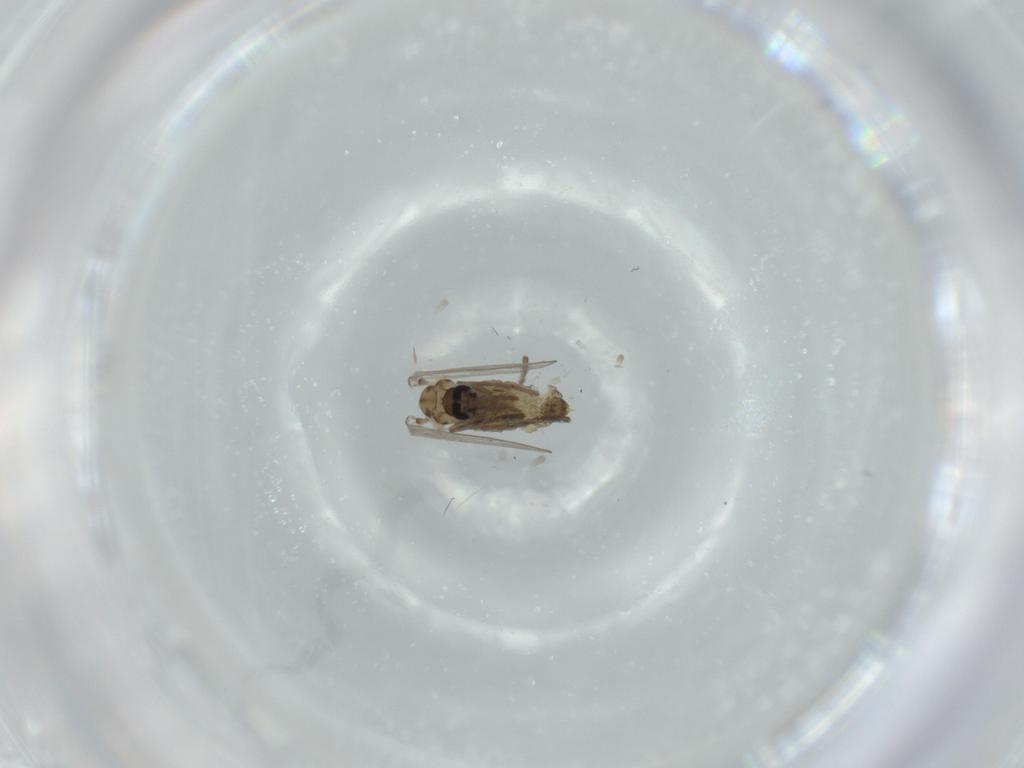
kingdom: Animalia
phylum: Arthropoda
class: Insecta
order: Diptera
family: Psychodidae
